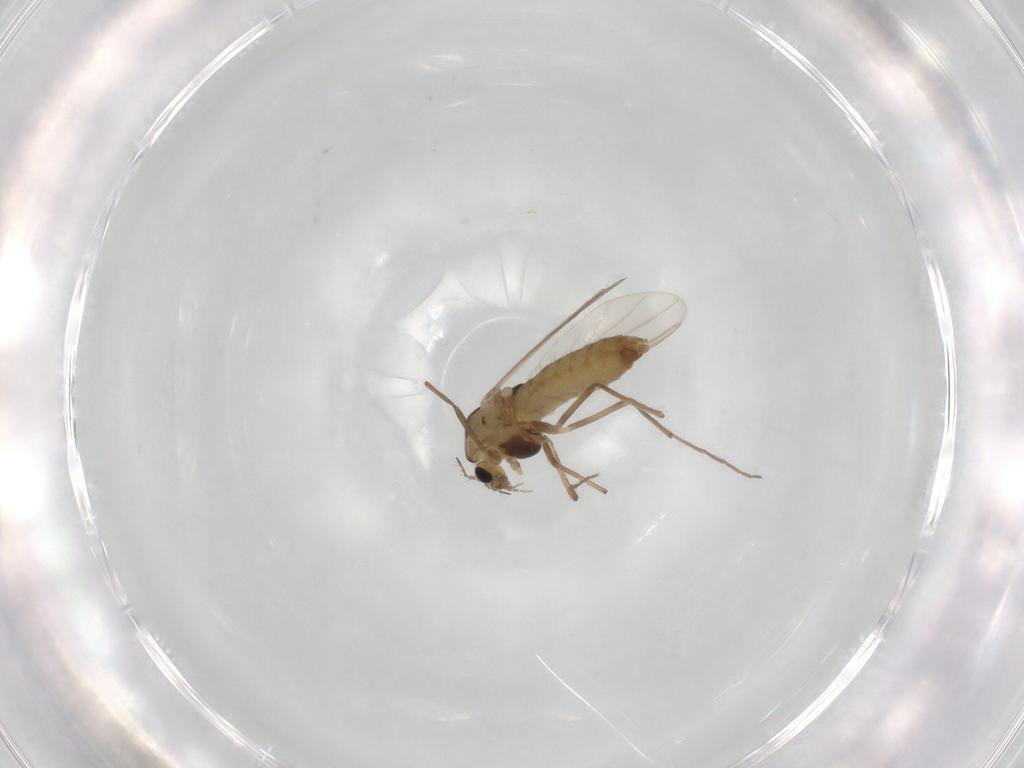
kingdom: Animalia
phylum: Arthropoda
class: Insecta
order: Diptera
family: Chironomidae
